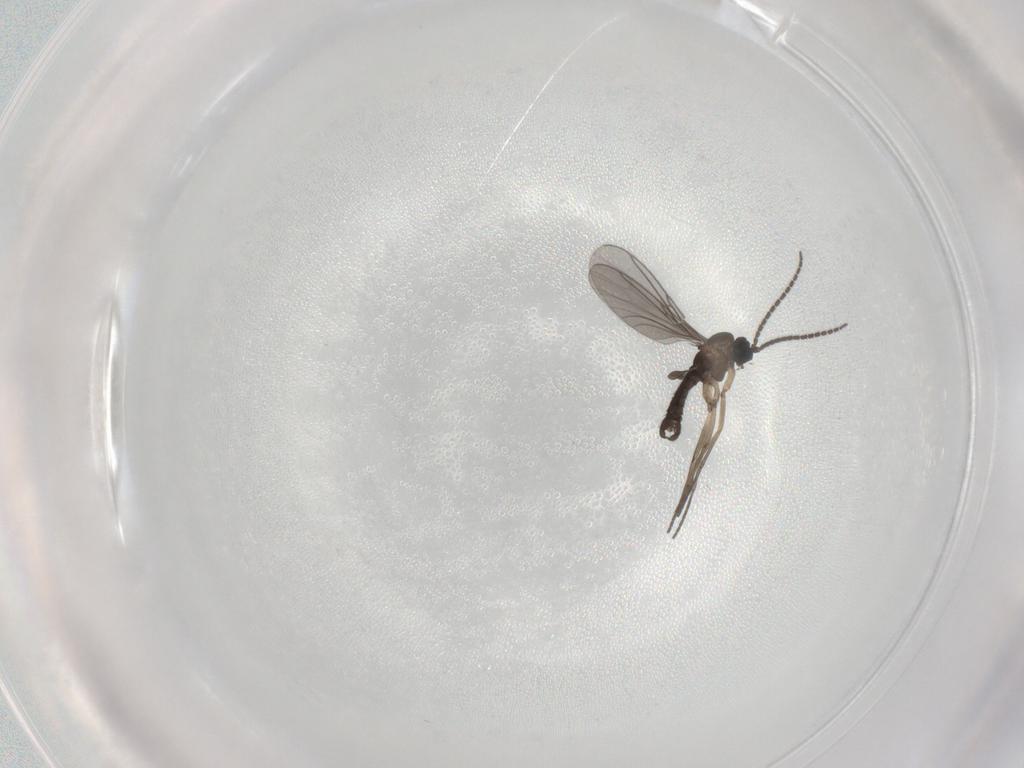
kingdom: Animalia
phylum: Arthropoda
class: Insecta
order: Diptera
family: Sciaridae
